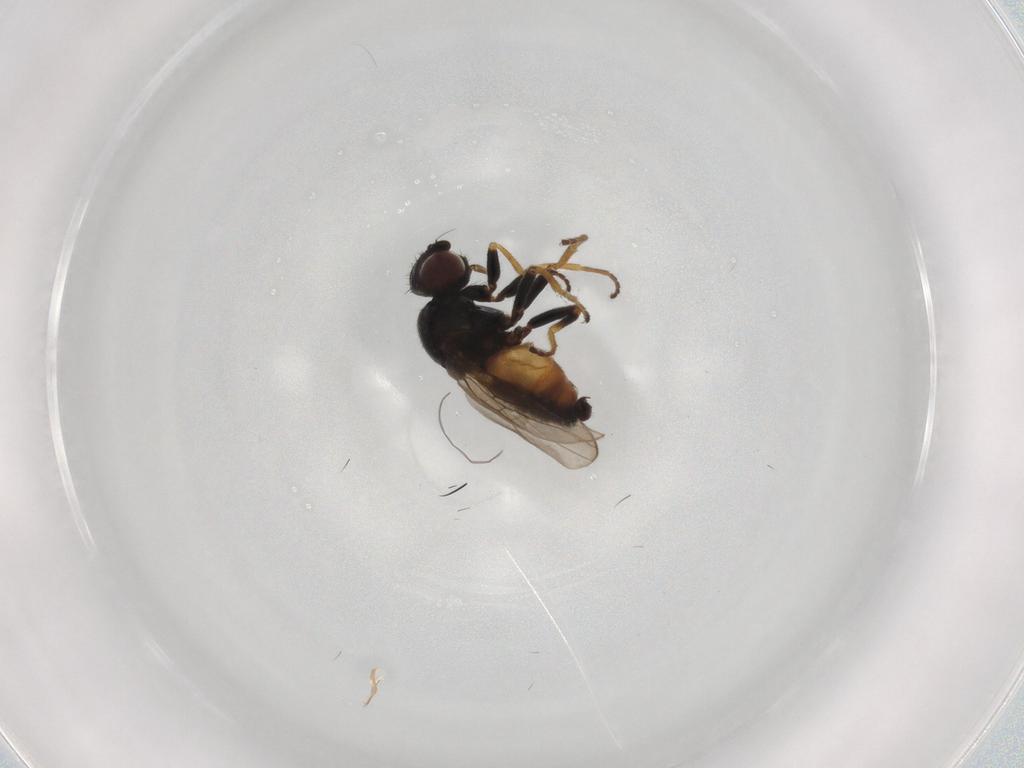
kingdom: Animalia
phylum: Arthropoda
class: Insecta
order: Diptera
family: Chloropidae
